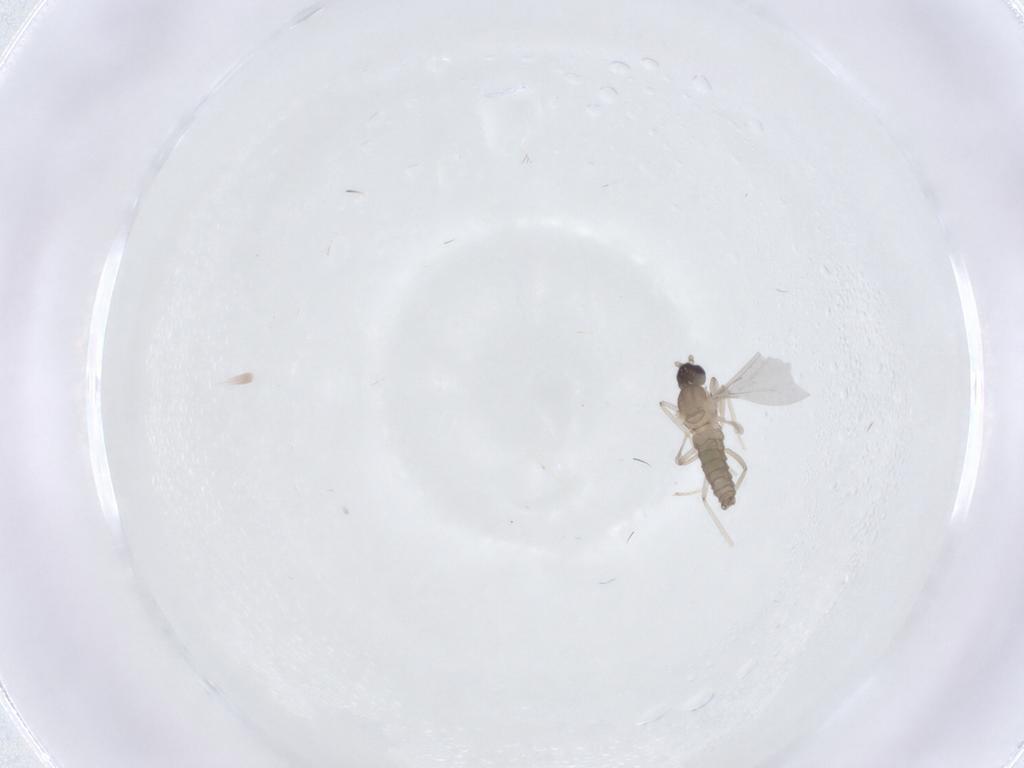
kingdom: Animalia
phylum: Arthropoda
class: Insecta
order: Diptera
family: Cecidomyiidae
